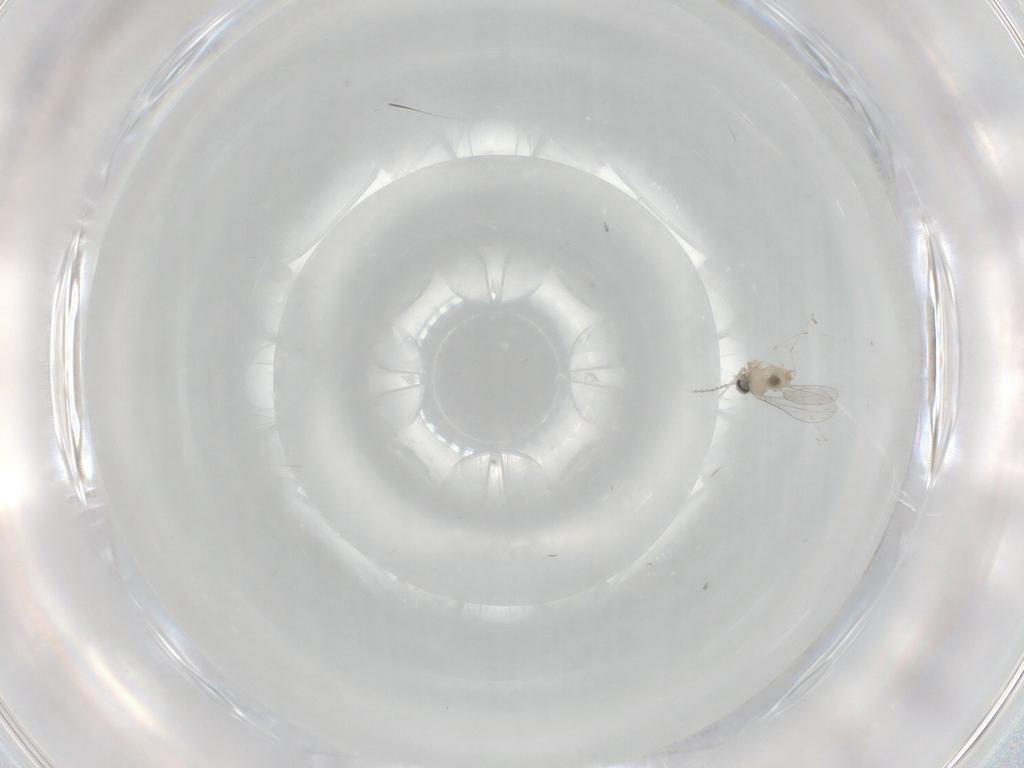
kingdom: Animalia
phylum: Arthropoda
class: Insecta
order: Diptera
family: Cecidomyiidae
